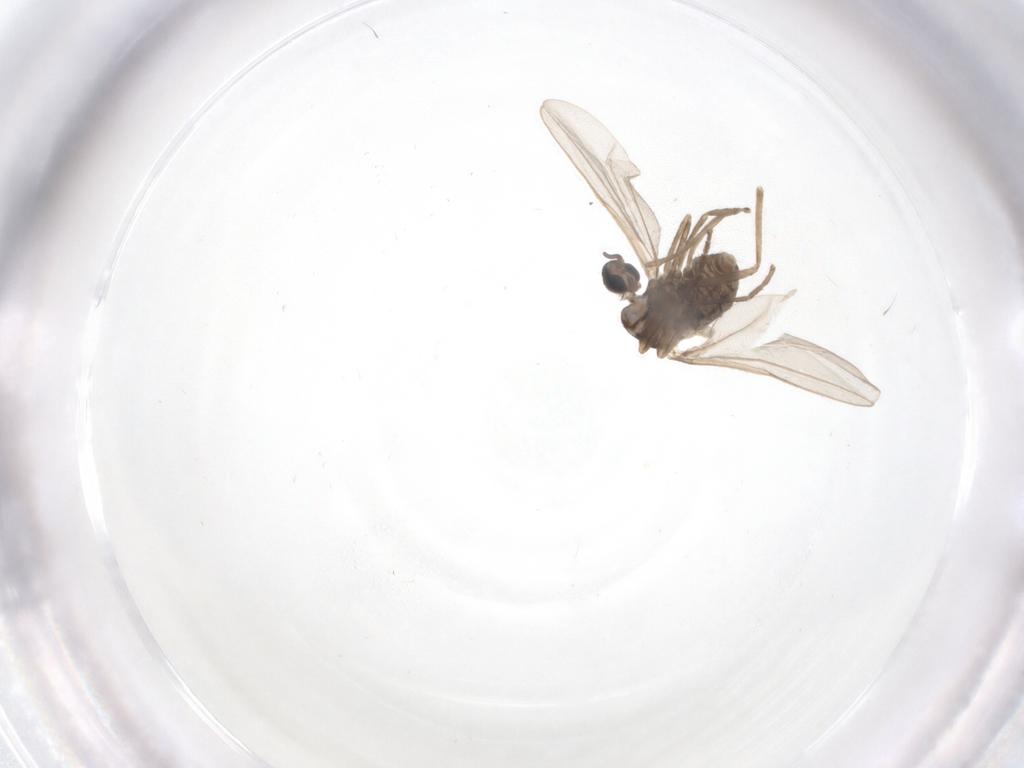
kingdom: Animalia
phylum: Arthropoda
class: Insecta
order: Diptera
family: Cecidomyiidae
